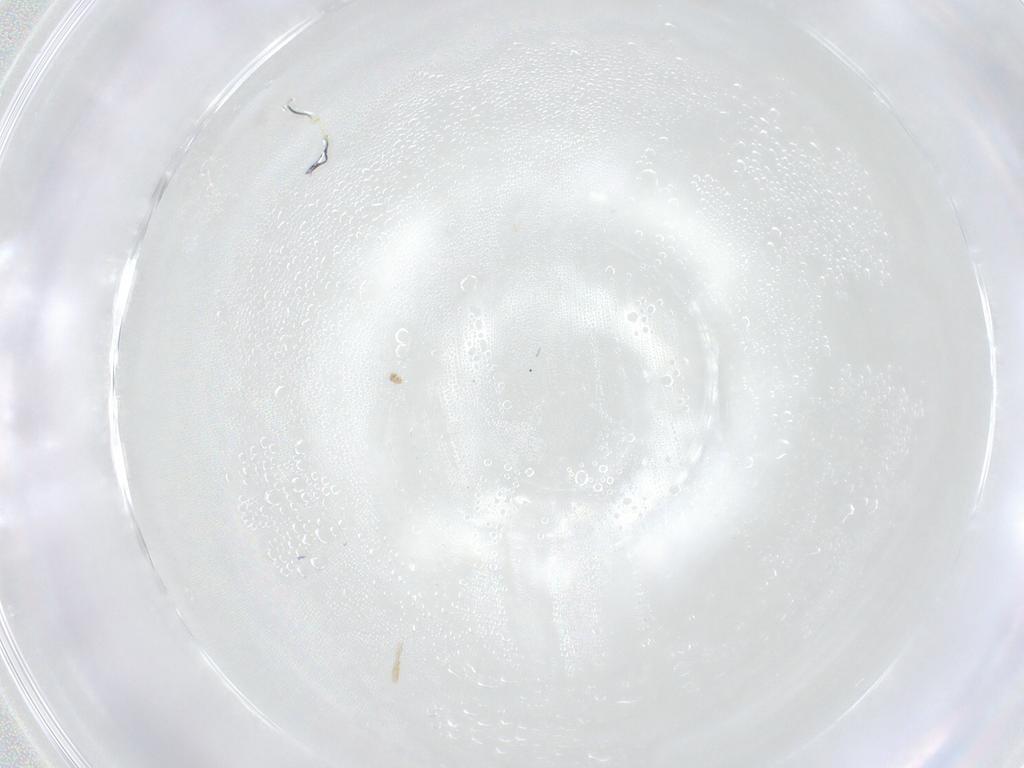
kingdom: Animalia
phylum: Arthropoda
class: Insecta
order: Hymenoptera
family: Mymaridae
